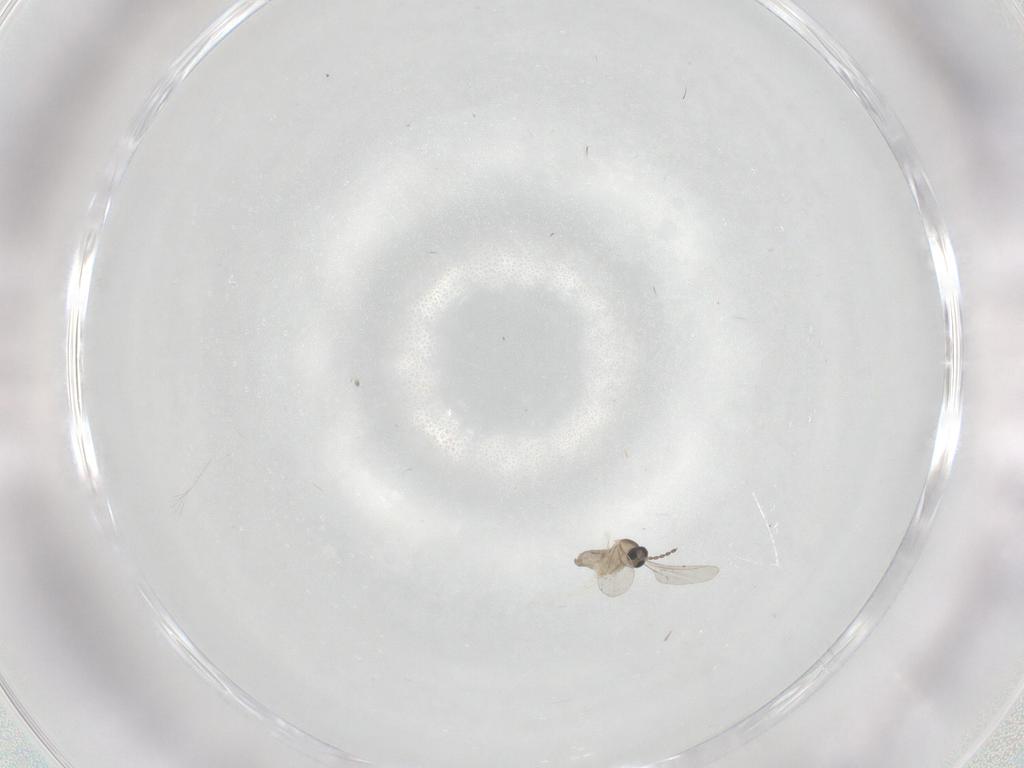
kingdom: Animalia
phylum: Arthropoda
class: Insecta
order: Diptera
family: Cecidomyiidae
